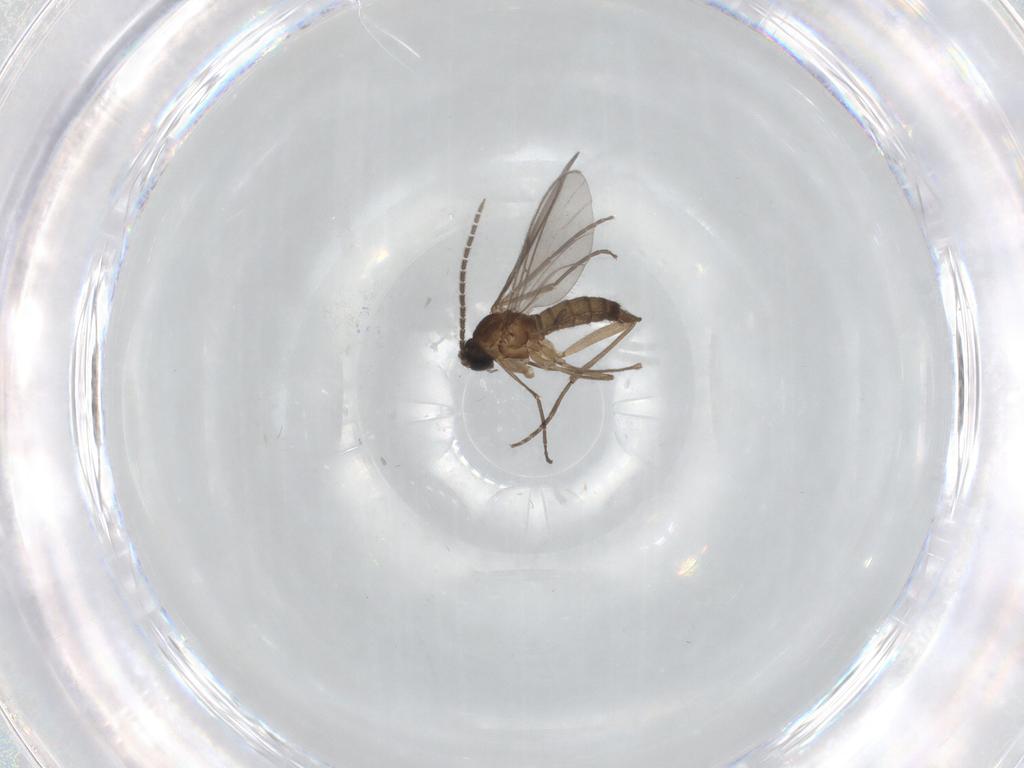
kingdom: Animalia
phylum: Arthropoda
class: Insecta
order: Diptera
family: Sciaridae
